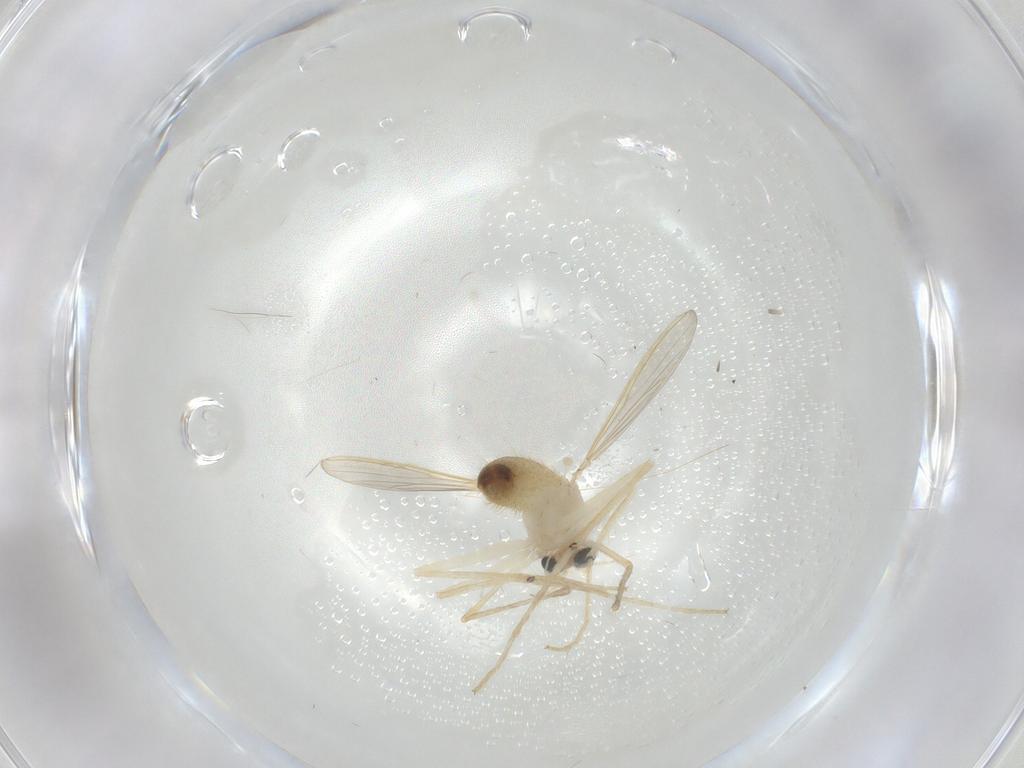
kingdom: Animalia
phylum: Arthropoda
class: Insecta
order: Diptera
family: Chironomidae
